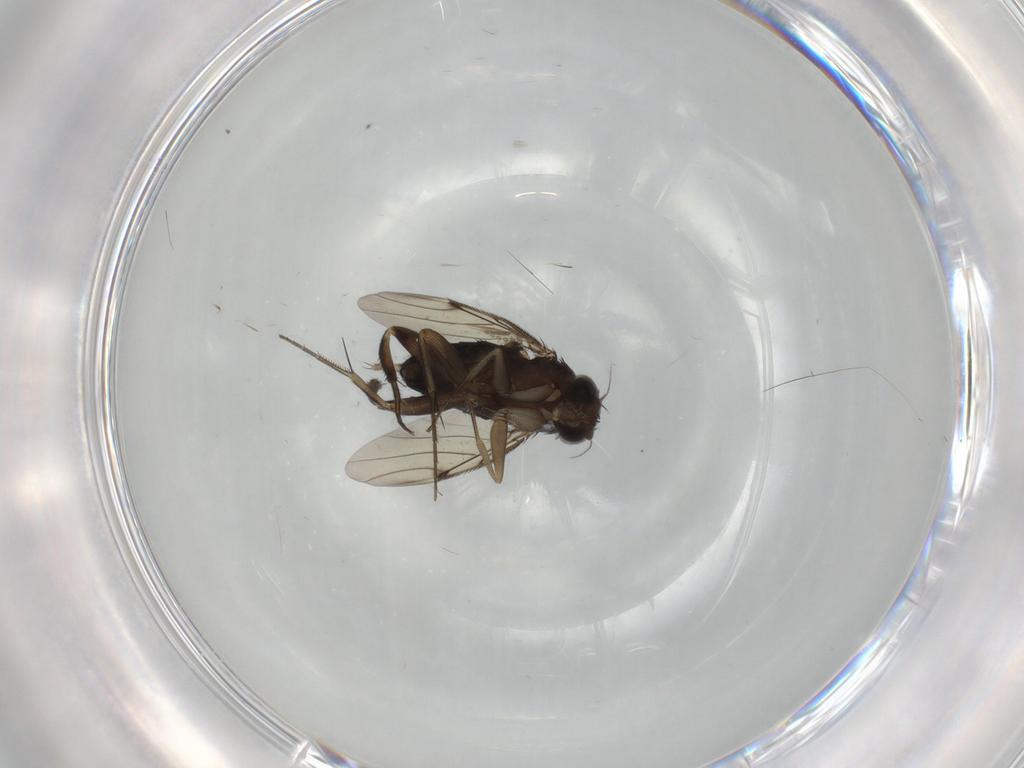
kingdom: Animalia
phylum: Arthropoda
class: Insecta
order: Diptera
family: Phoridae
